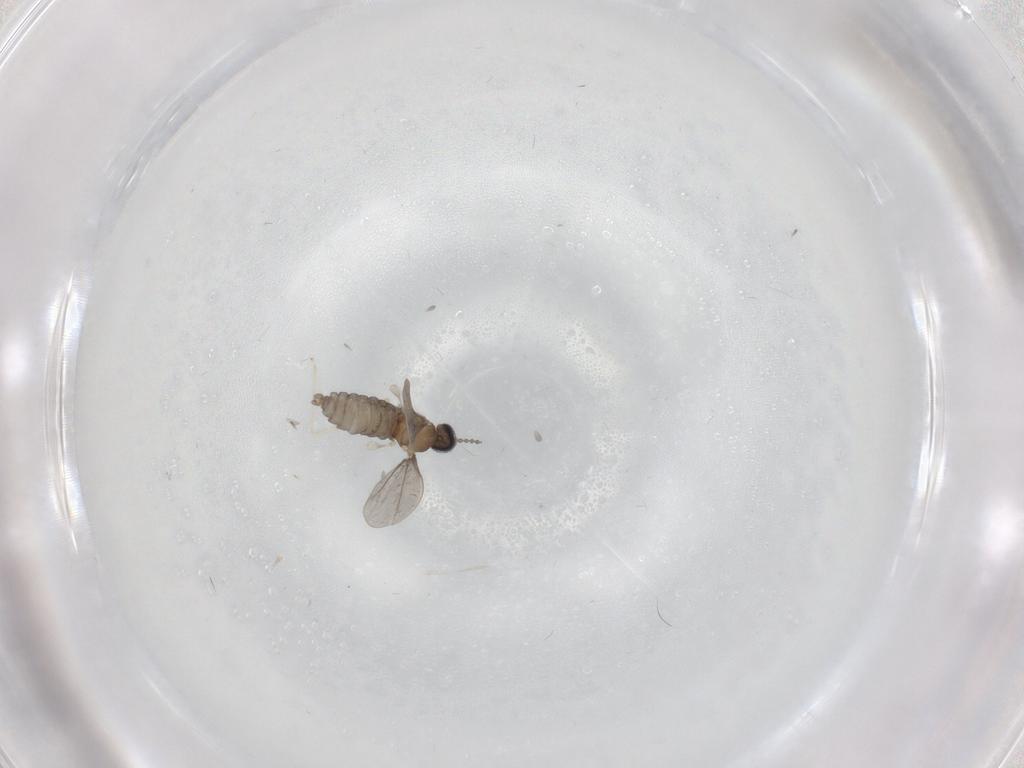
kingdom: Animalia
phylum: Arthropoda
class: Insecta
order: Diptera
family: Cecidomyiidae
